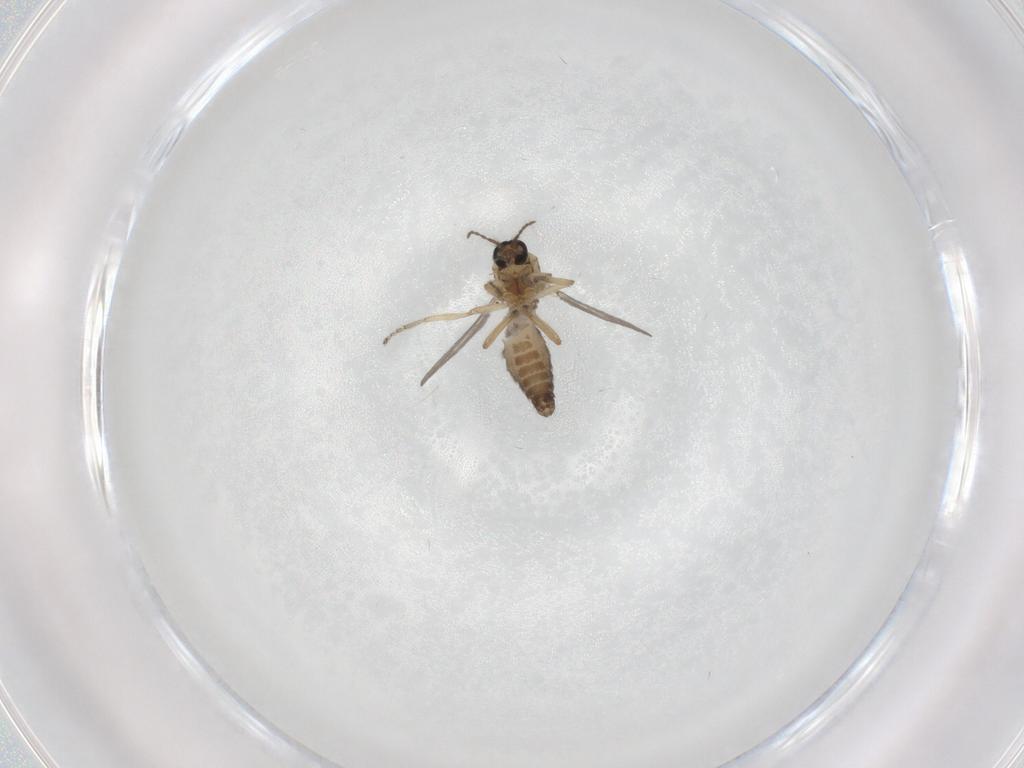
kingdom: Animalia
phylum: Arthropoda
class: Insecta
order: Diptera
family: Ceratopogonidae
